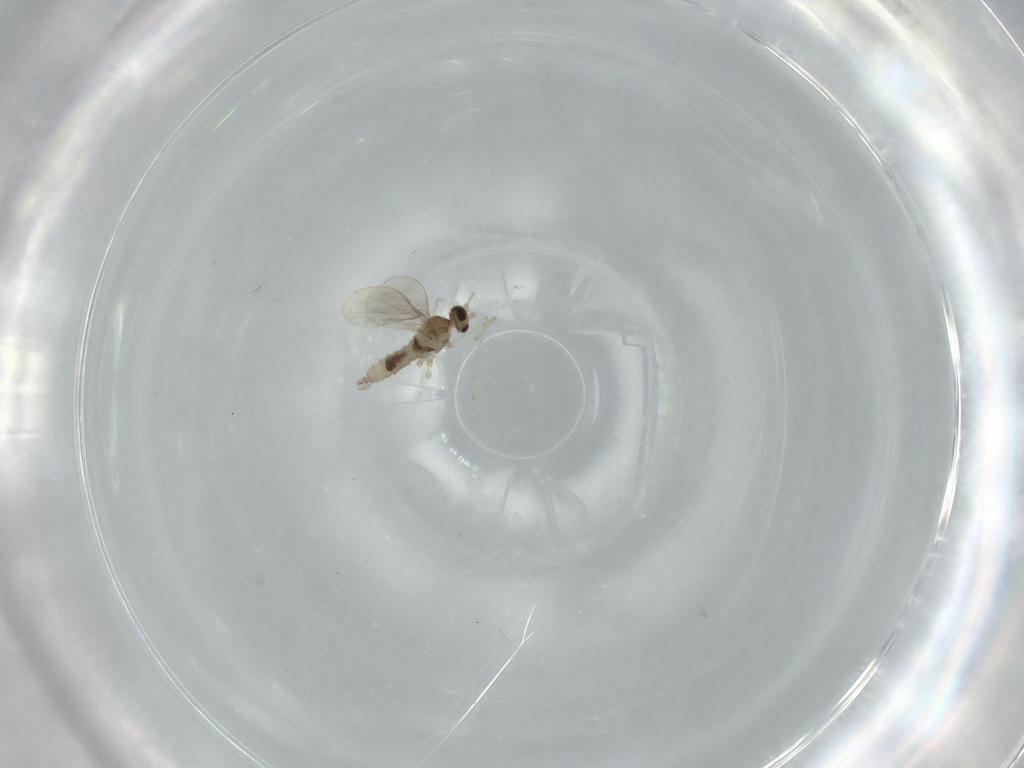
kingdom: Animalia
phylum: Arthropoda
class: Insecta
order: Diptera
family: Cecidomyiidae
